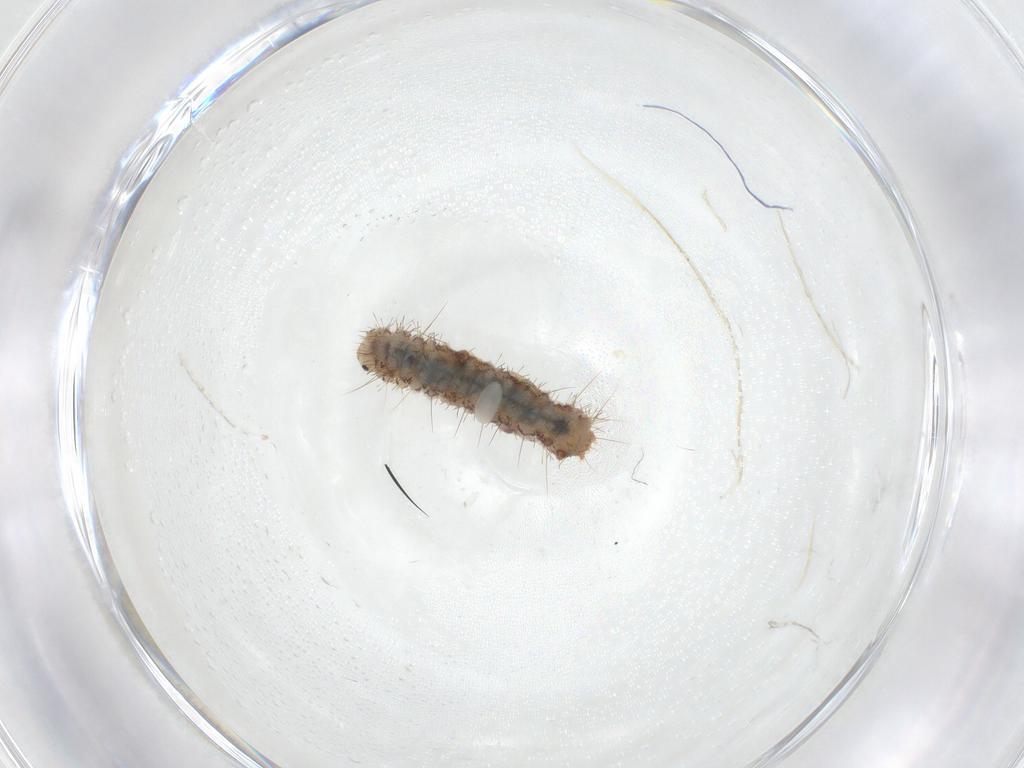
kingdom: Animalia
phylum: Arthropoda
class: Insecta
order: Lepidoptera
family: Erebidae
